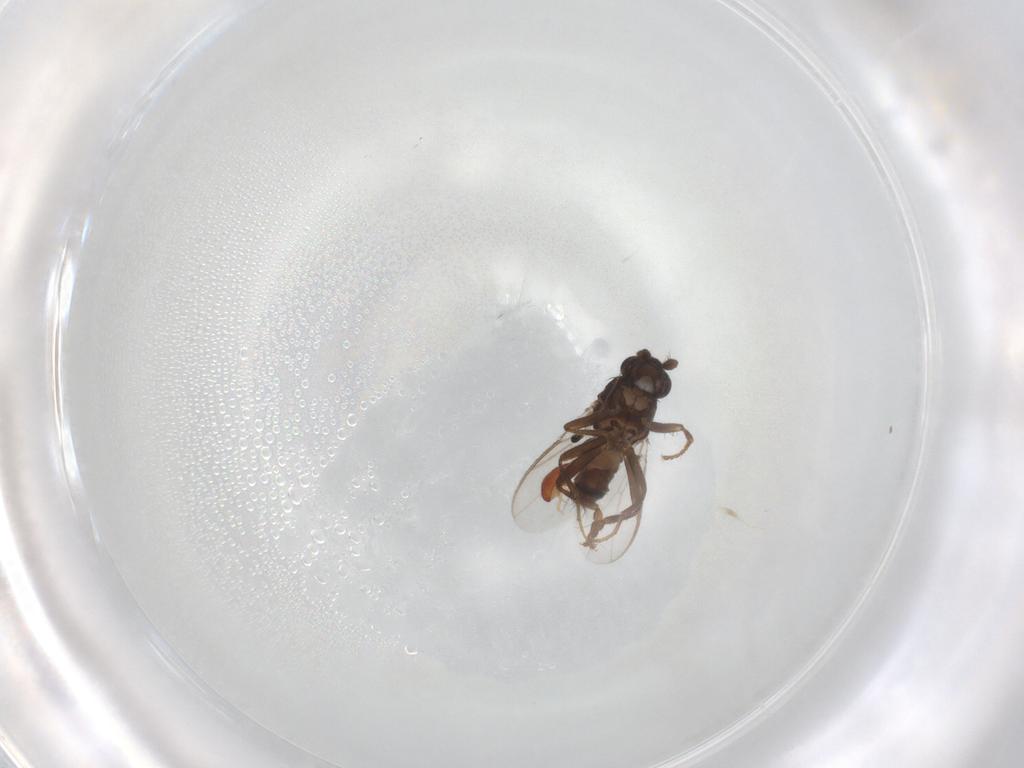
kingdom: Animalia
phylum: Arthropoda
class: Insecta
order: Diptera
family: Sphaeroceridae
